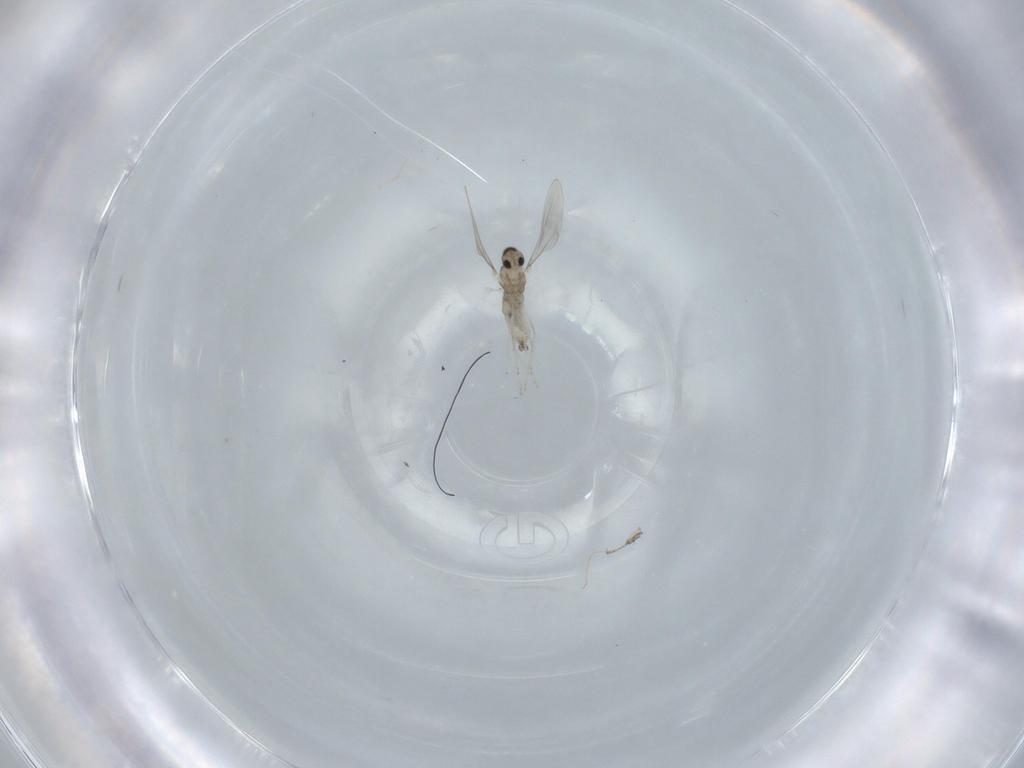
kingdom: Animalia
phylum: Arthropoda
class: Insecta
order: Diptera
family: Cecidomyiidae
